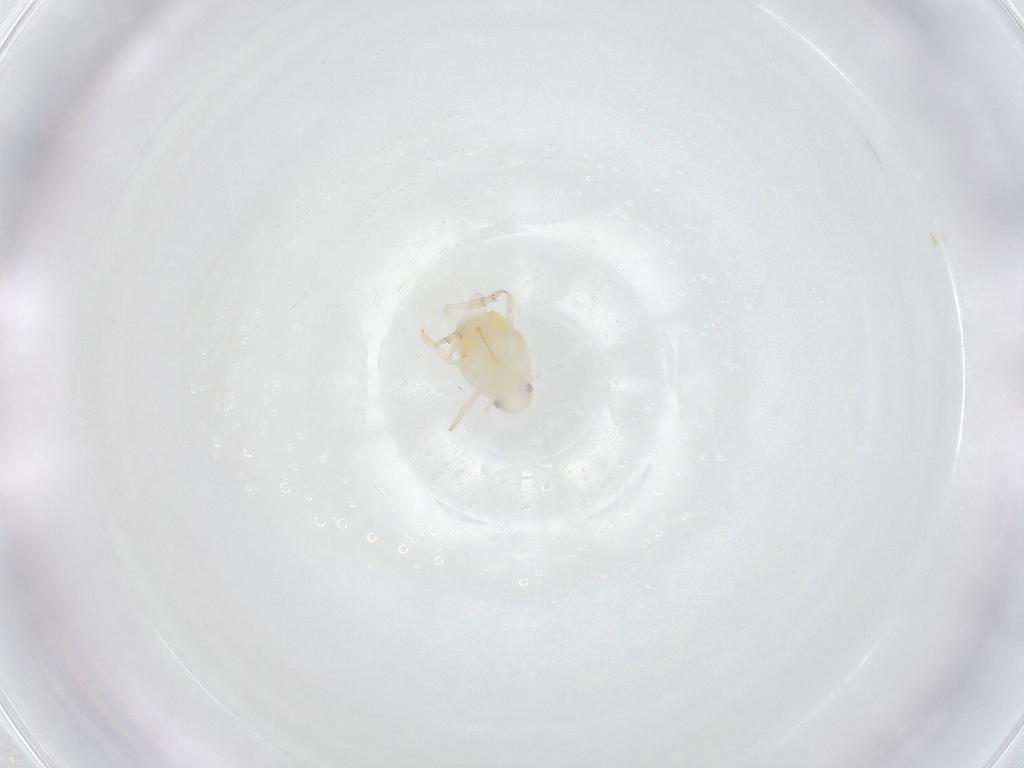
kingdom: Animalia
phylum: Arthropoda
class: Insecta
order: Hemiptera
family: Flatidae
